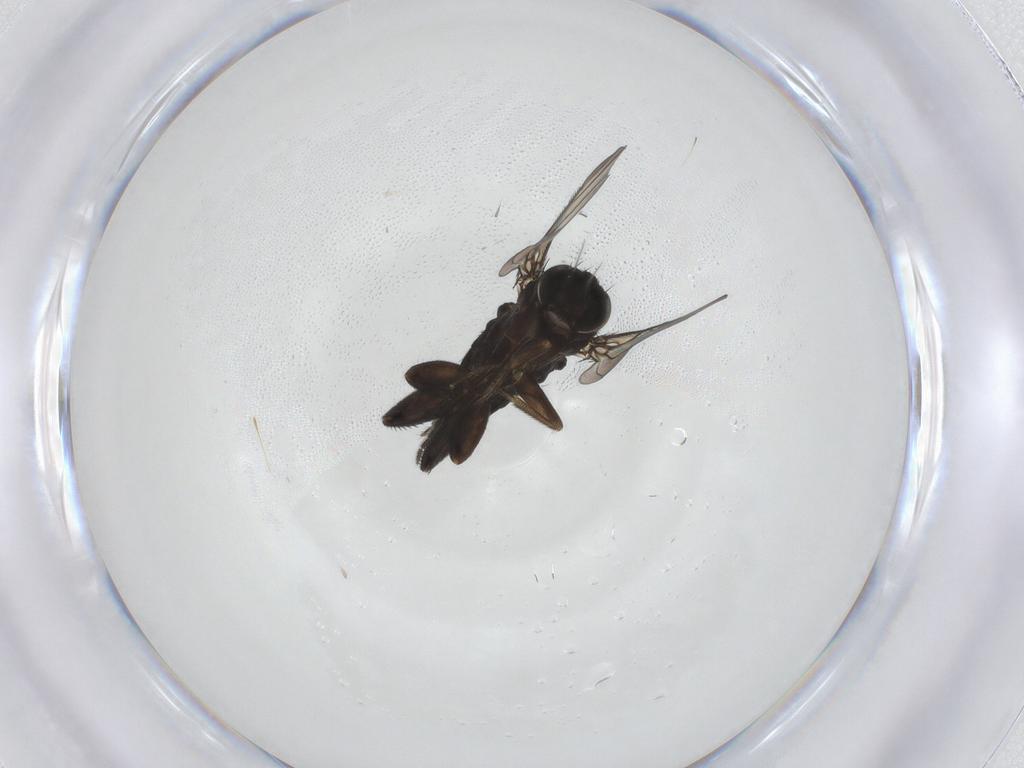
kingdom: Animalia
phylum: Arthropoda
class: Insecta
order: Diptera
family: Phoridae
